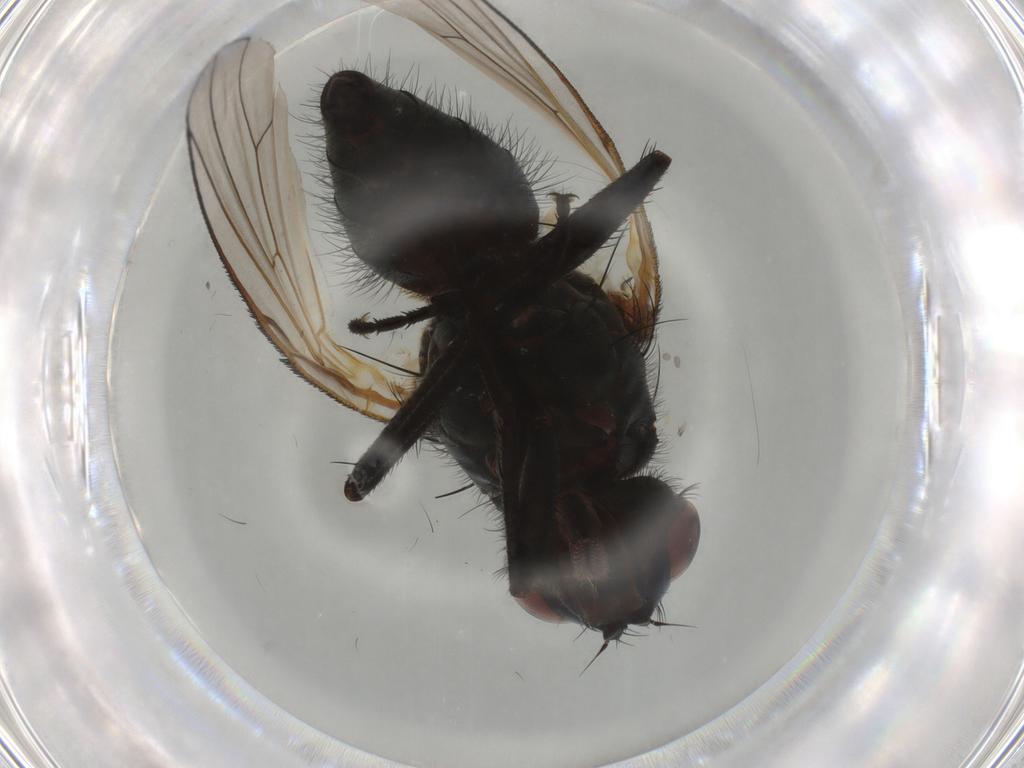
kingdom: Animalia
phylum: Arthropoda
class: Insecta
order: Diptera
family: Anthomyiidae
